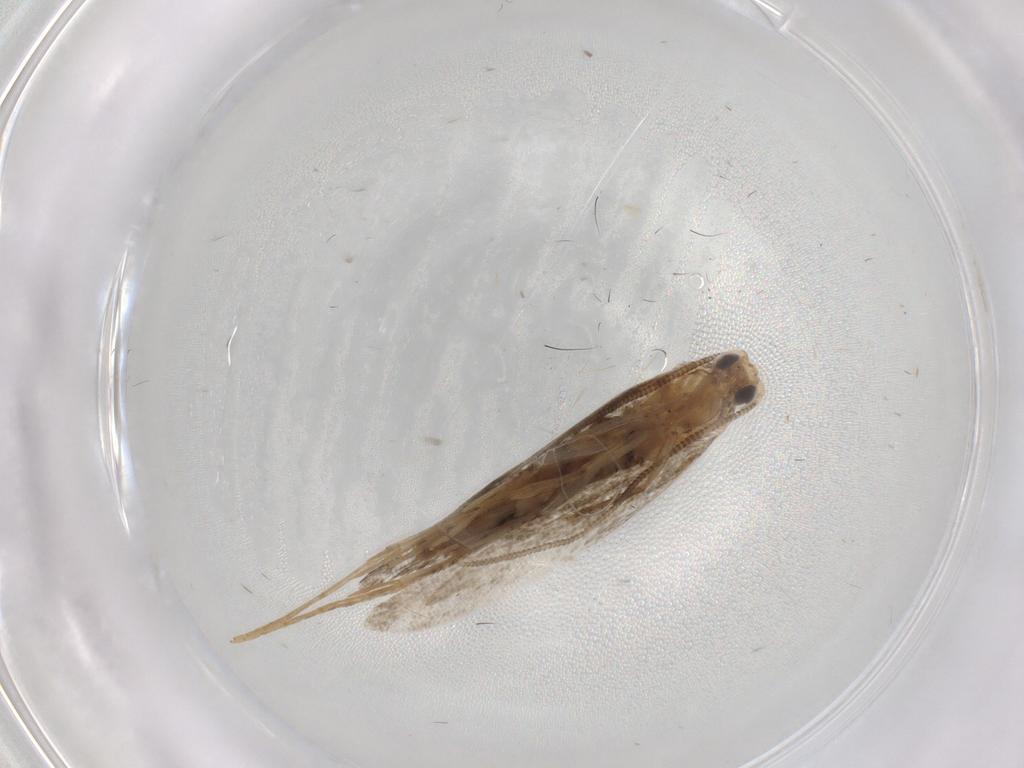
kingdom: Animalia
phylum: Arthropoda
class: Insecta
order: Lepidoptera
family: Tineidae
